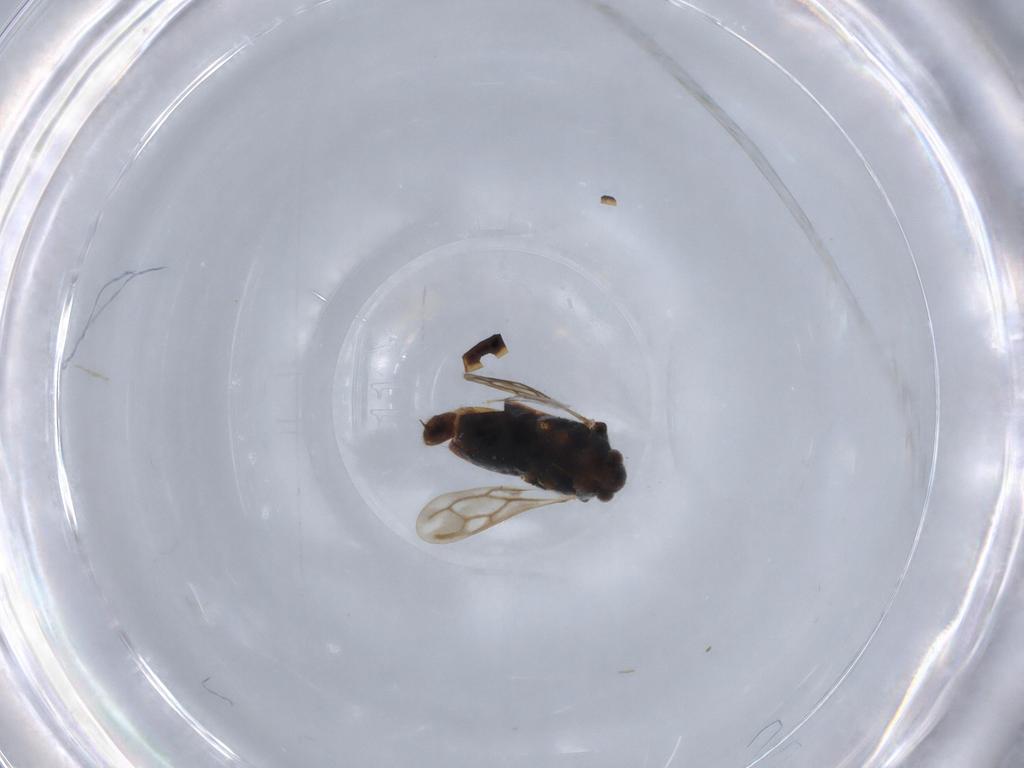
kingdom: Animalia
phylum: Arthropoda
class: Insecta
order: Hemiptera
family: Veliidae
